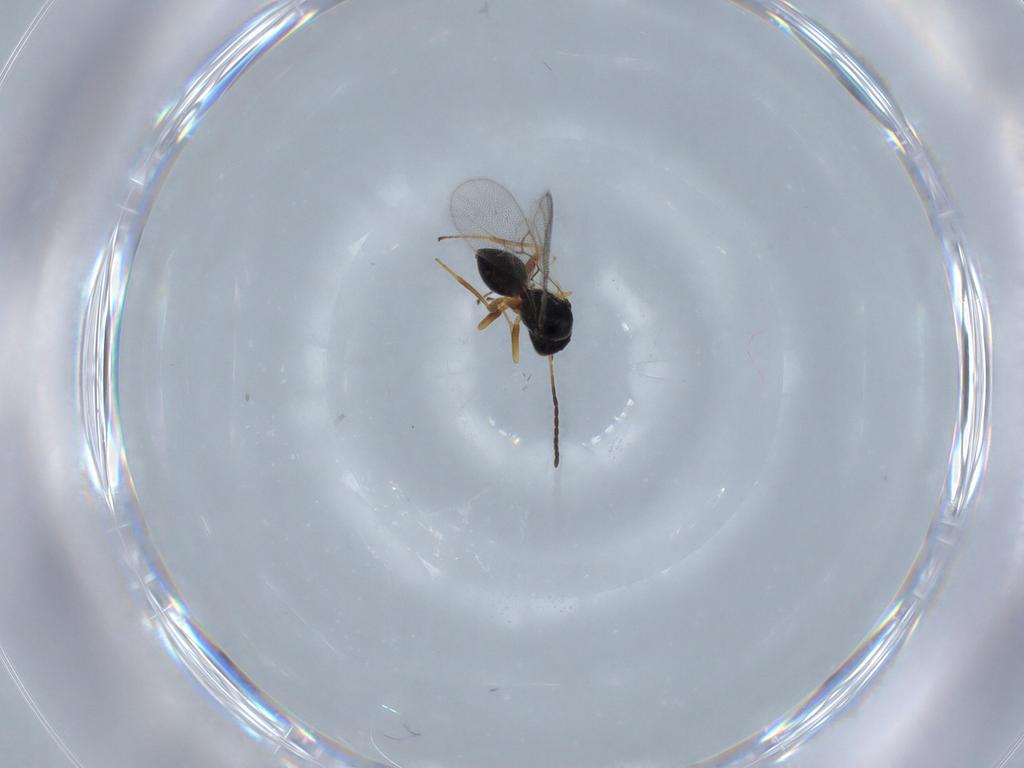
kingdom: Animalia
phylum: Arthropoda
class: Insecta
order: Hymenoptera
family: Figitidae
